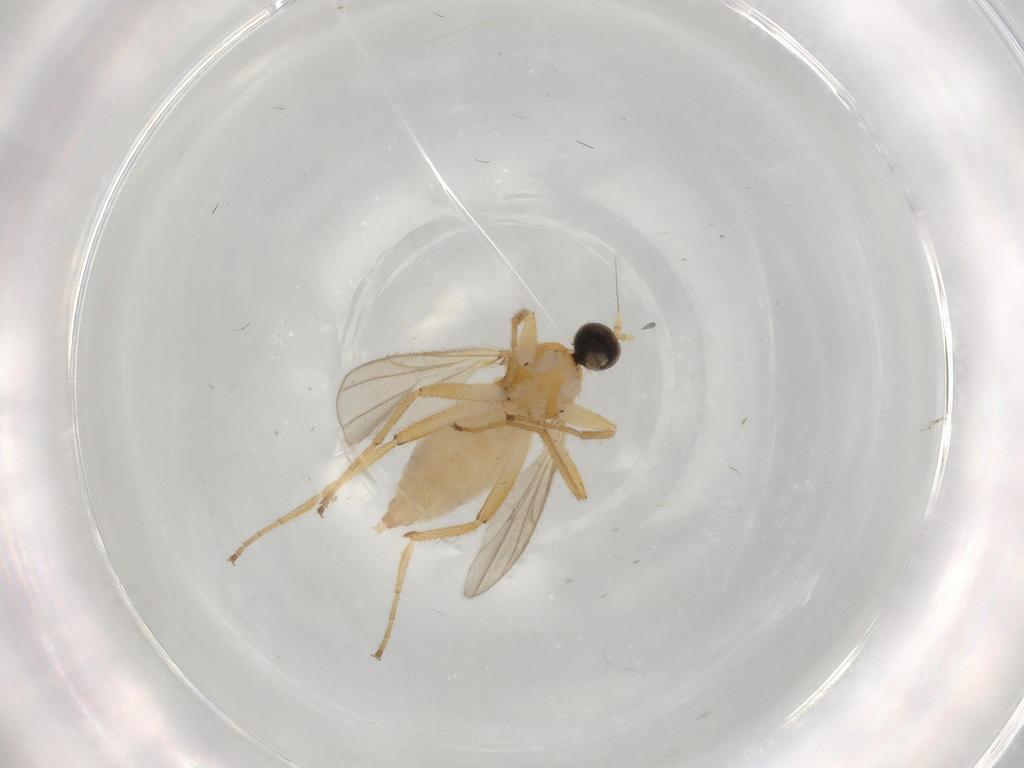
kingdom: Animalia
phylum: Arthropoda
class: Insecta
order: Diptera
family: Hybotidae
